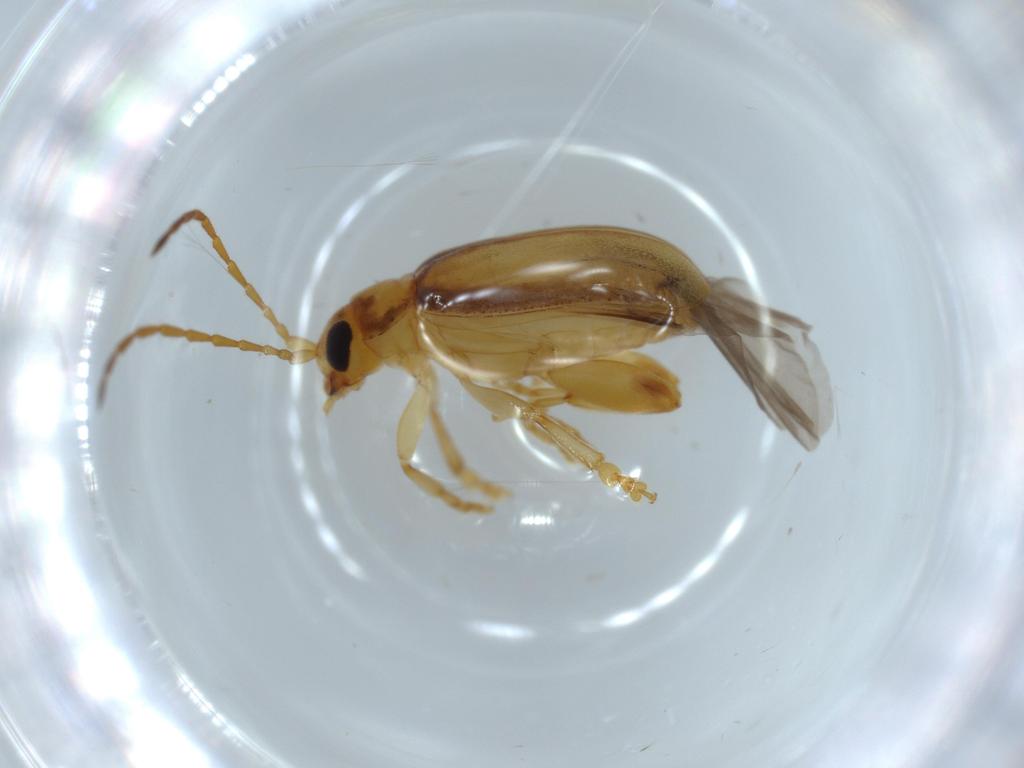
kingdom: Animalia
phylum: Arthropoda
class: Insecta
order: Coleoptera
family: Chrysomelidae
